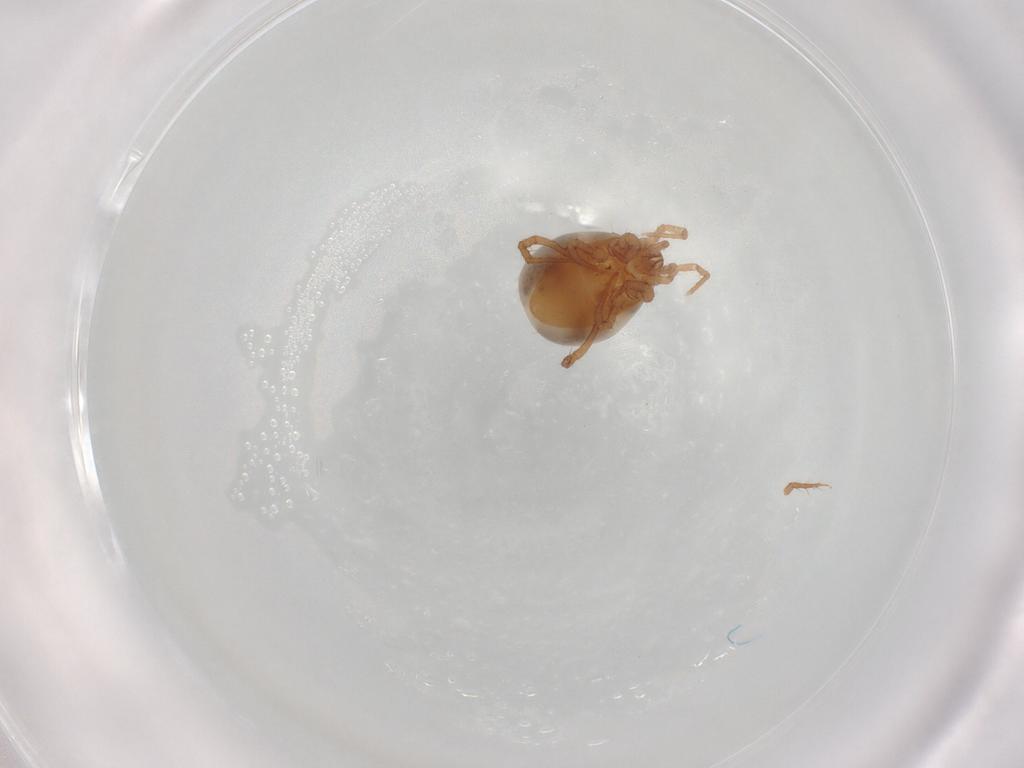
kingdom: Animalia
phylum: Arthropoda
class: Arachnida
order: Mesostigmata
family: Parasitidae
